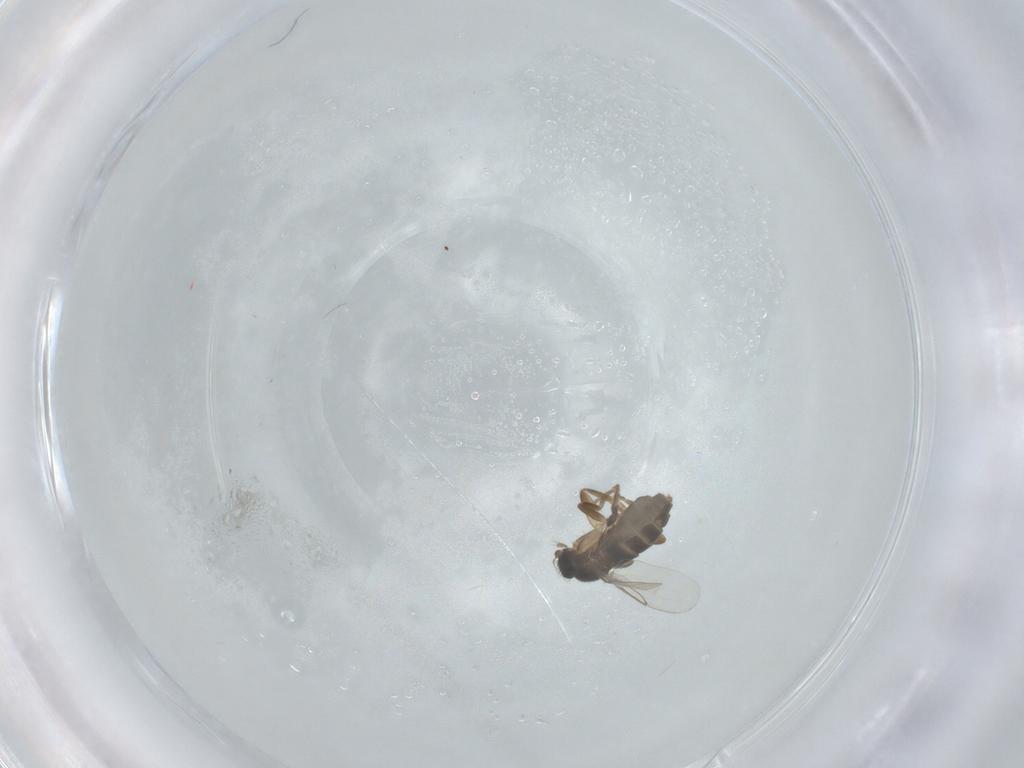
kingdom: Animalia
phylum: Arthropoda
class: Insecta
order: Diptera
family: Phoridae
